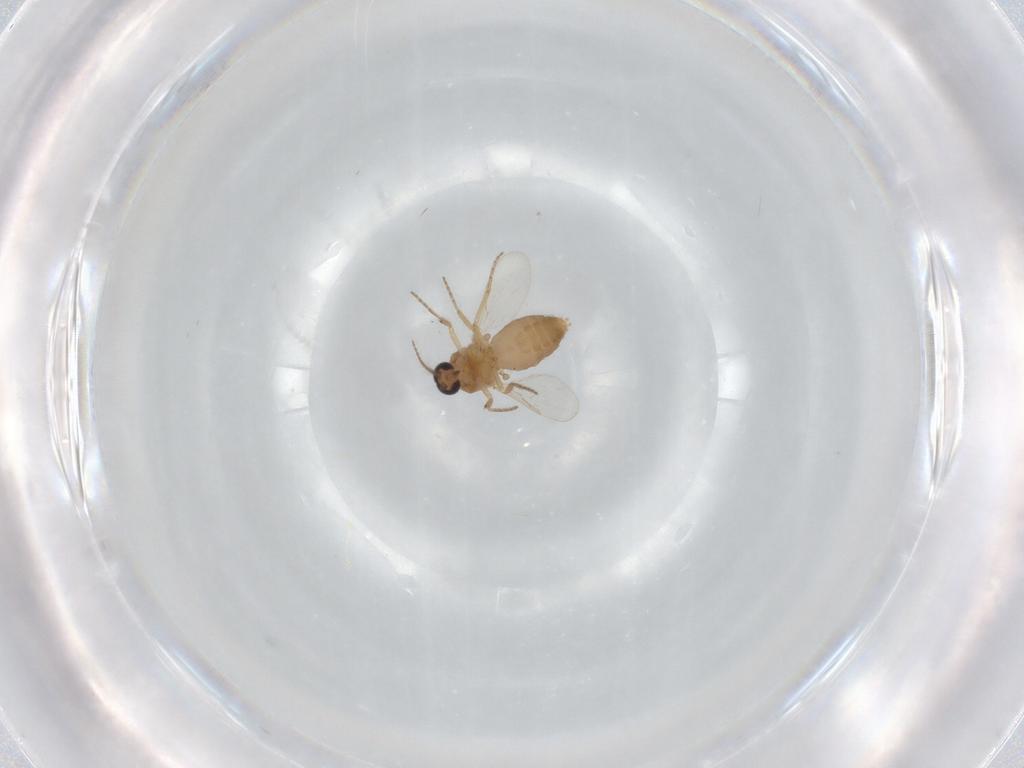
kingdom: Animalia
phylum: Arthropoda
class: Insecta
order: Diptera
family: Ceratopogonidae
